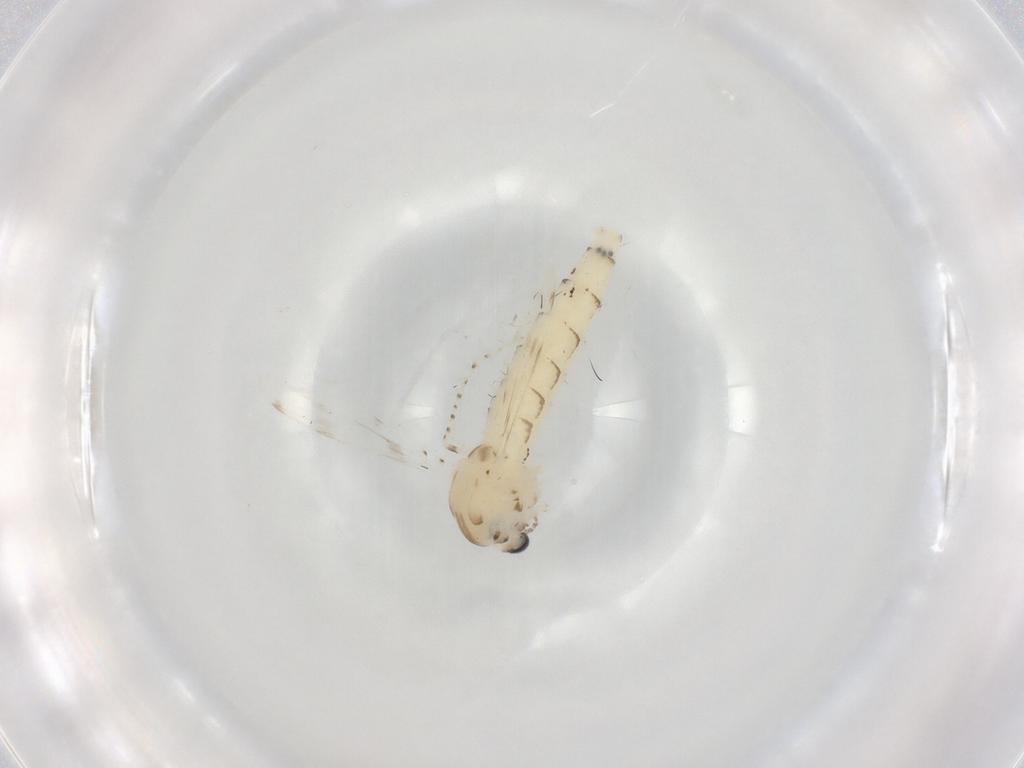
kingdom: Animalia
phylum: Arthropoda
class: Insecta
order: Diptera
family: Chaoboridae
